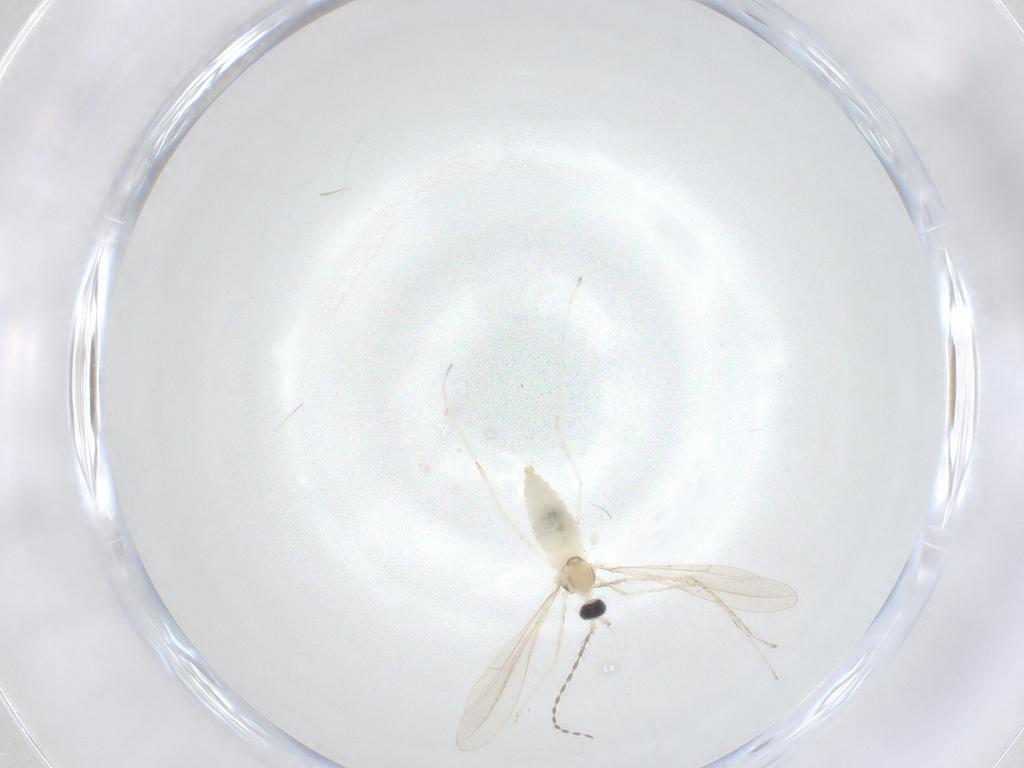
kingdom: Animalia
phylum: Arthropoda
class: Insecta
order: Diptera
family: Cecidomyiidae
